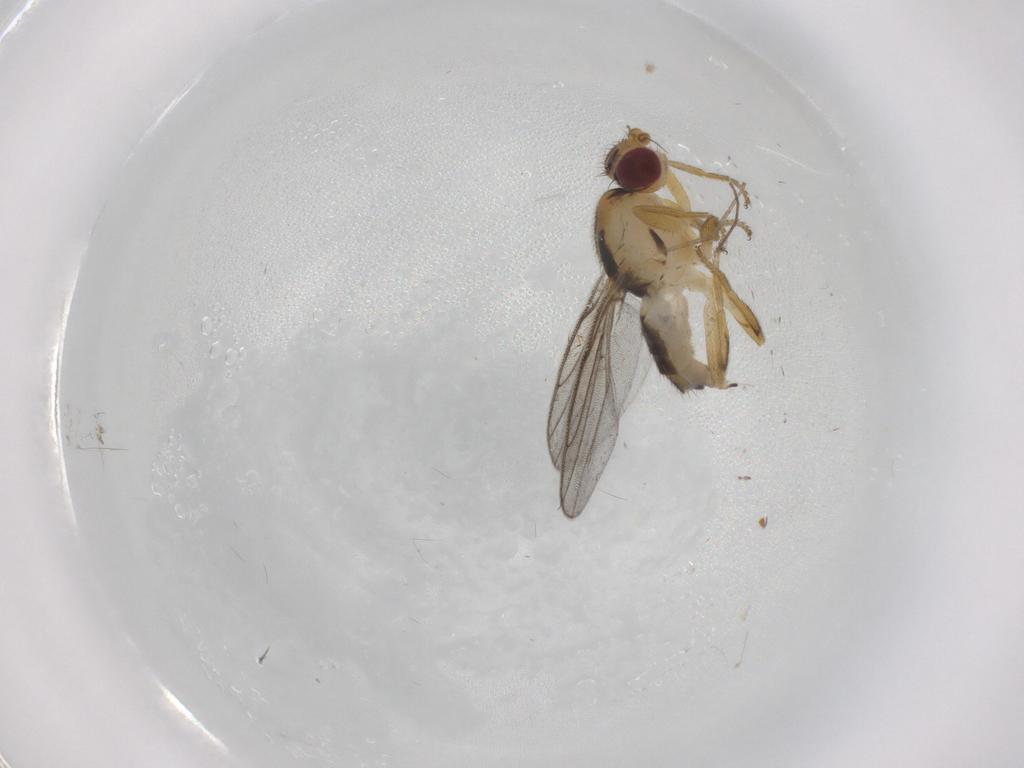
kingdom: Animalia
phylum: Arthropoda
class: Insecta
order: Diptera
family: Chloropidae
